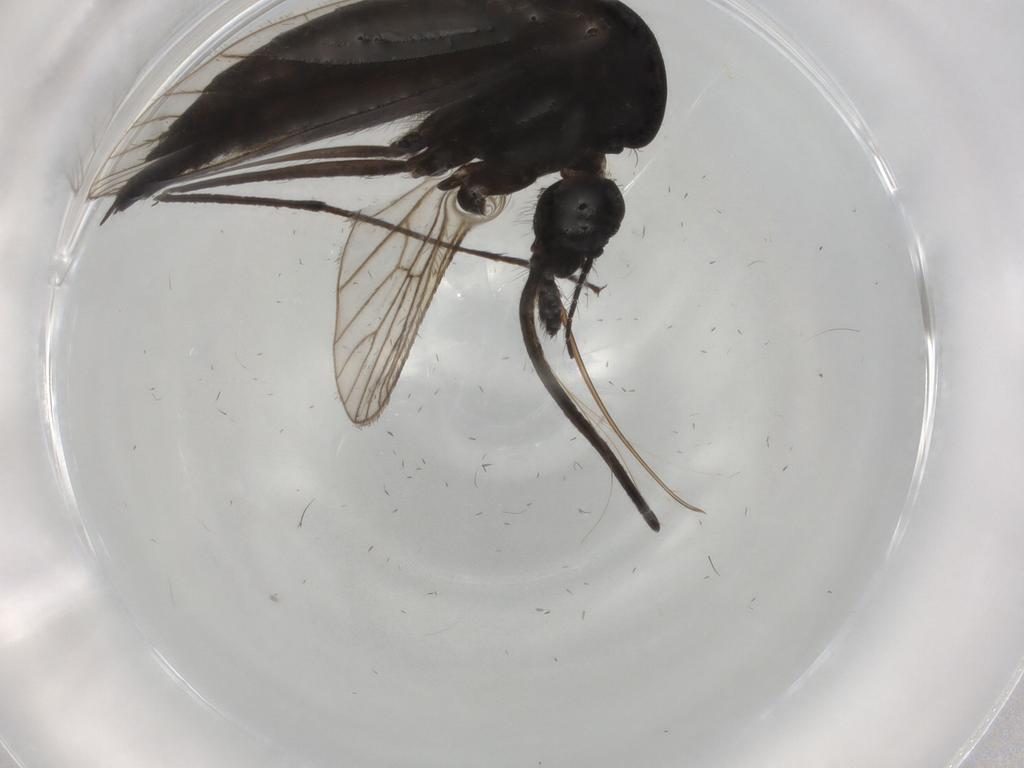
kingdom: Animalia
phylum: Arthropoda
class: Insecta
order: Diptera
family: Sciaridae
